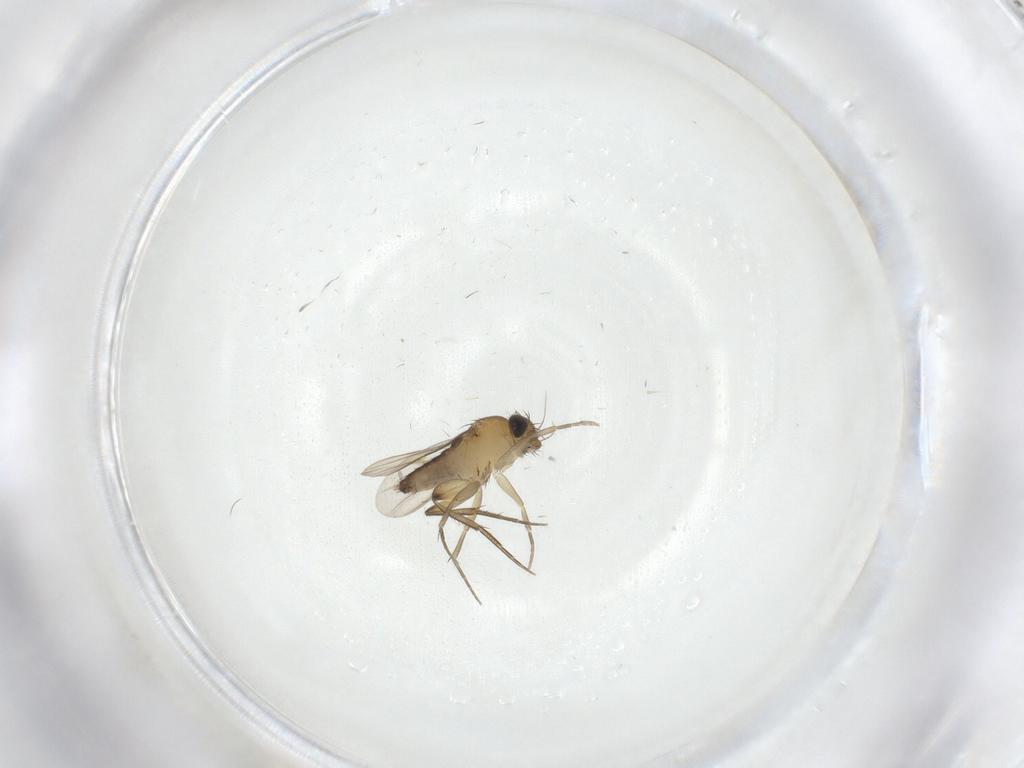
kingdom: Animalia
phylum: Arthropoda
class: Insecta
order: Diptera
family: Phoridae
